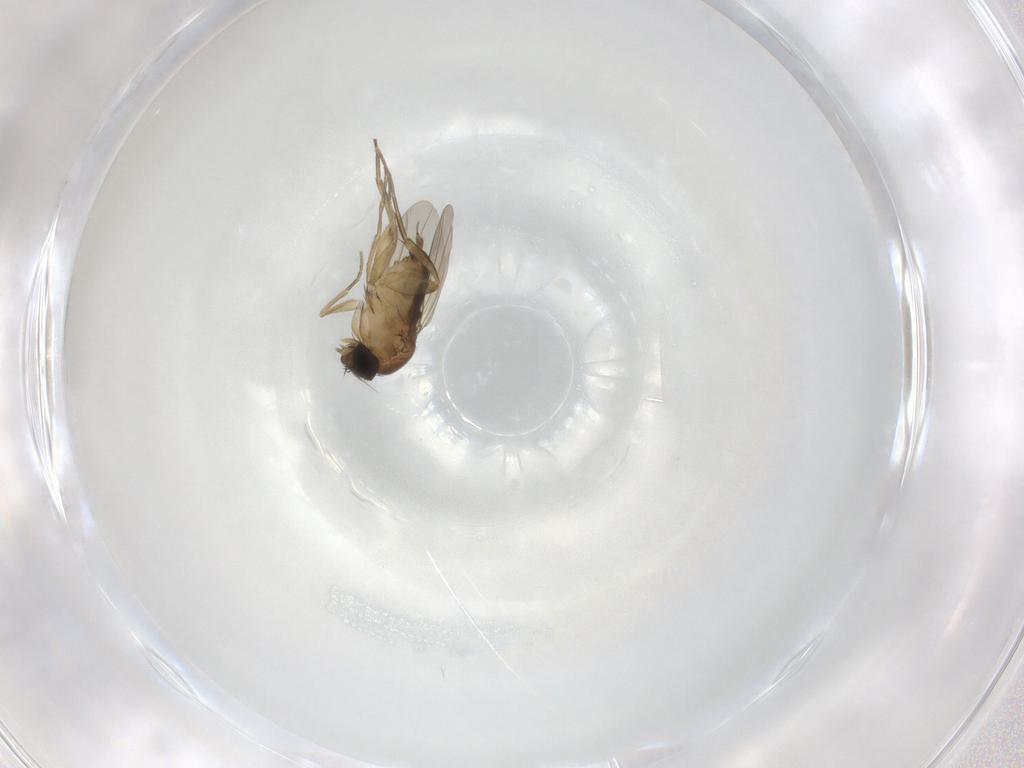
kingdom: Animalia
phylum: Arthropoda
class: Insecta
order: Diptera
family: Phoridae
